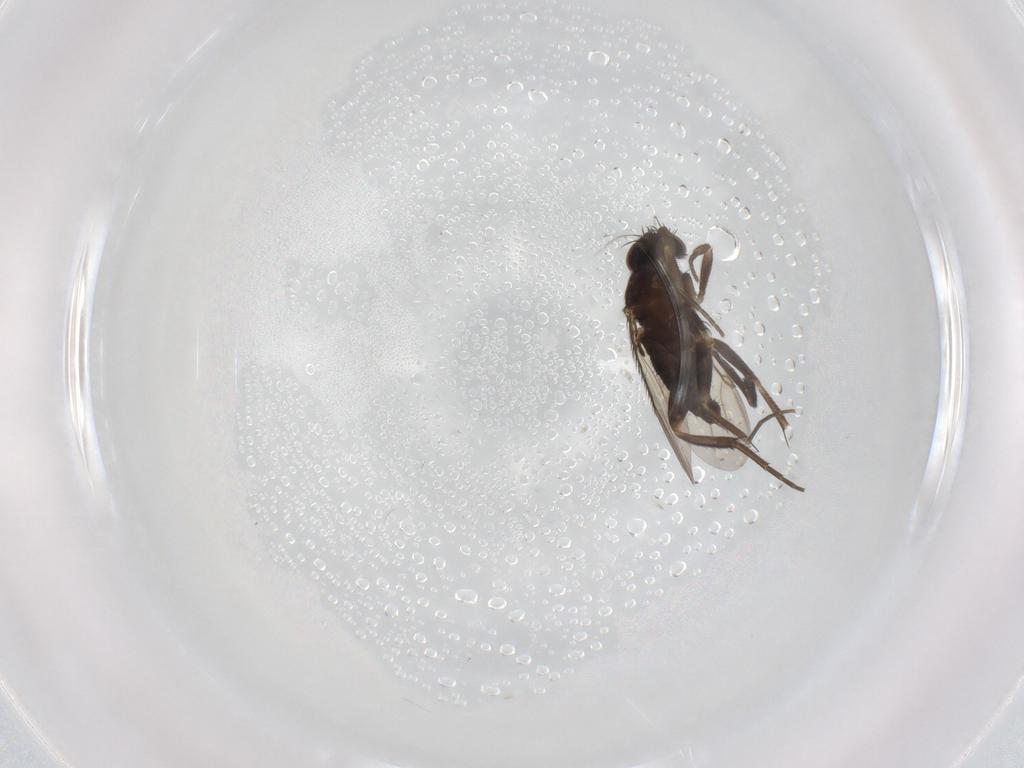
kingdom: Animalia
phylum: Arthropoda
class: Insecta
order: Diptera
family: Phoridae
